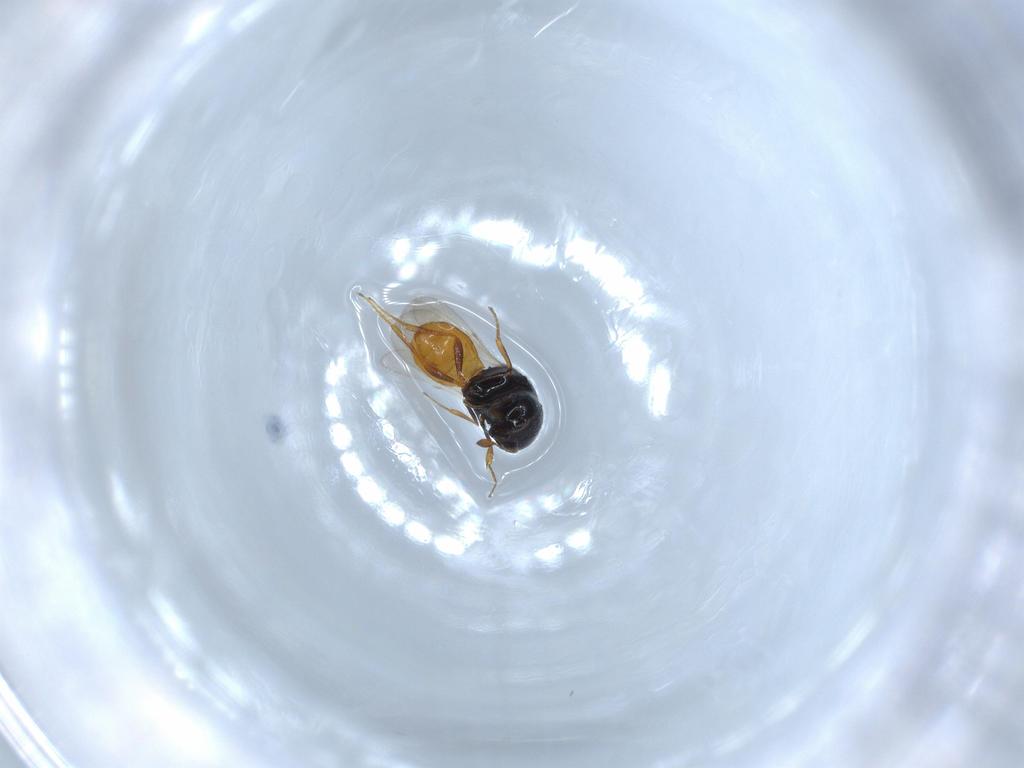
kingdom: Animalia
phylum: Arthropoda
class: Insecta
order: Hymenoptera
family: Scelionidae
